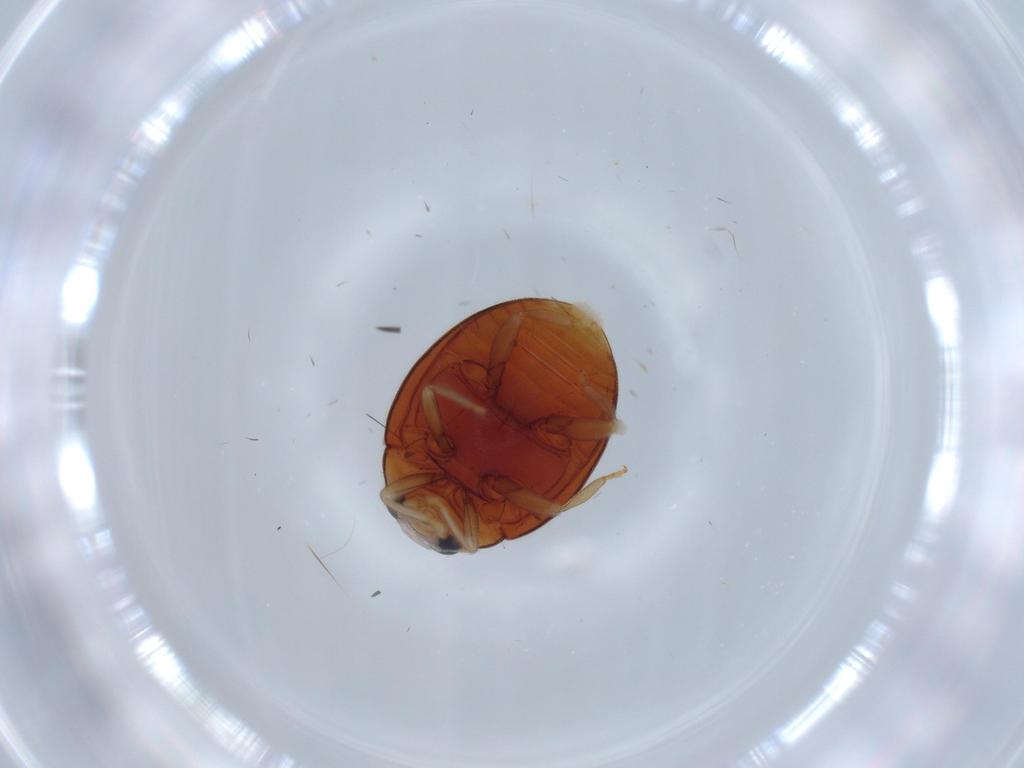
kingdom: Animalia
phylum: Arthropoda
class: Insecta
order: Coleoptera
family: Coccinellidae
